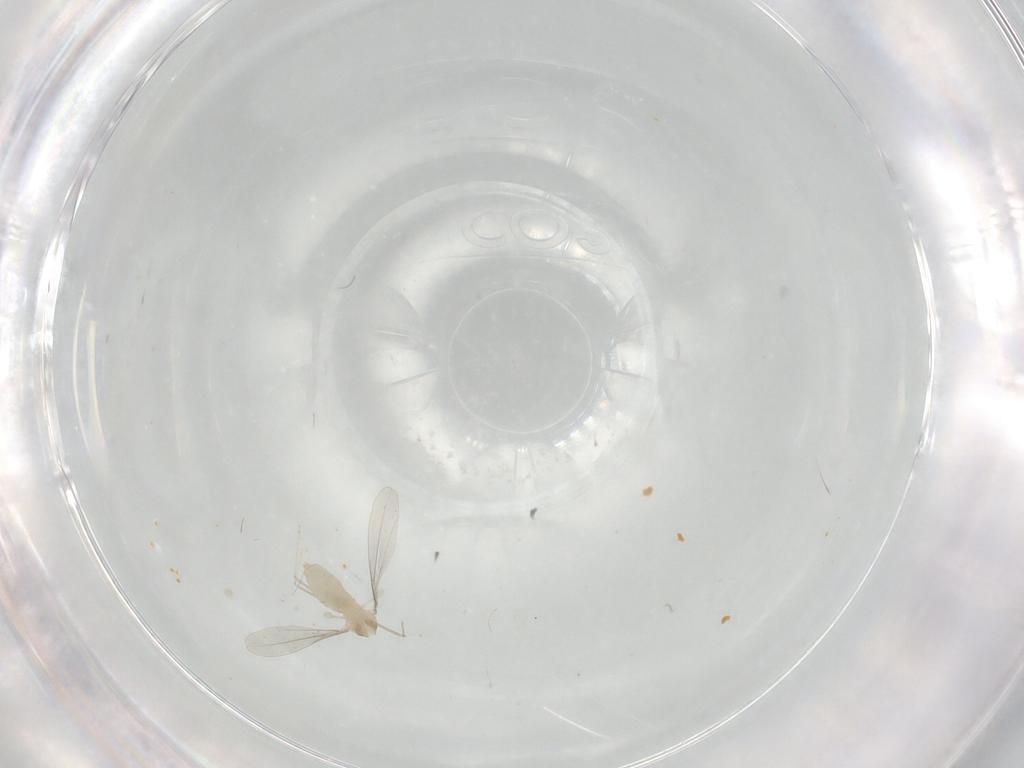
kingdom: Animalia
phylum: Arthropoda
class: Insecta
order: Diptera
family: Cecidomyiidae
